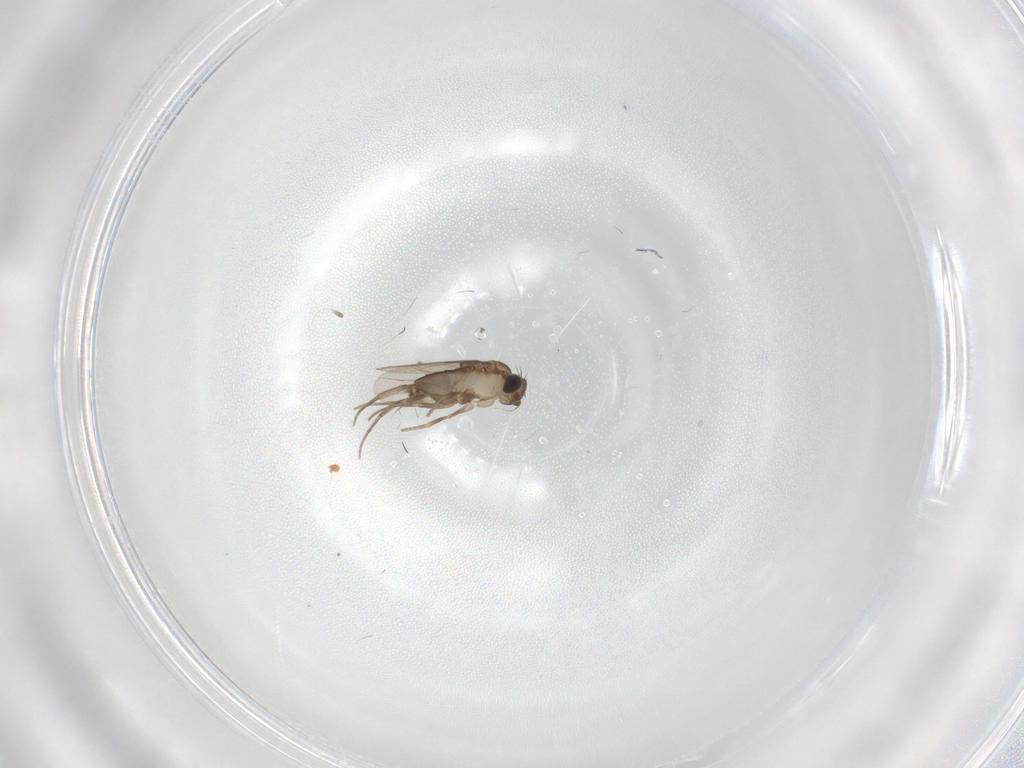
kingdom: Animalia
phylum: Arthropoda
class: Insecta
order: Diptera
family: Phoridae
